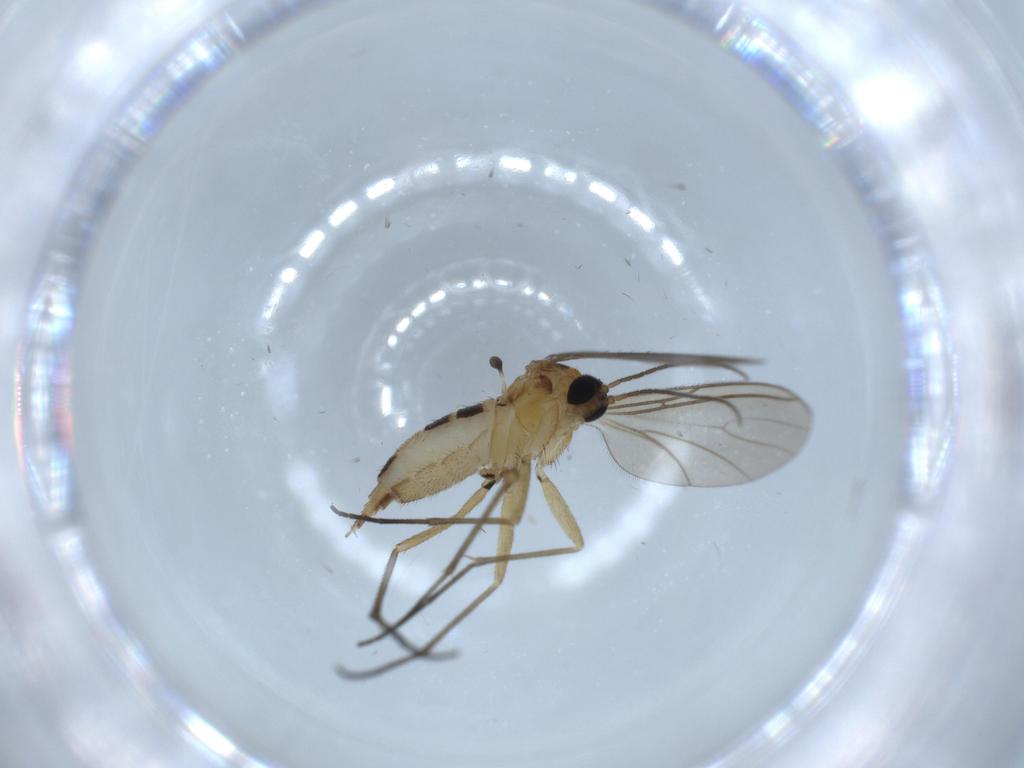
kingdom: Animalia
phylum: Arthropoda
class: Insecta
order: Diptera
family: Sciaridae
